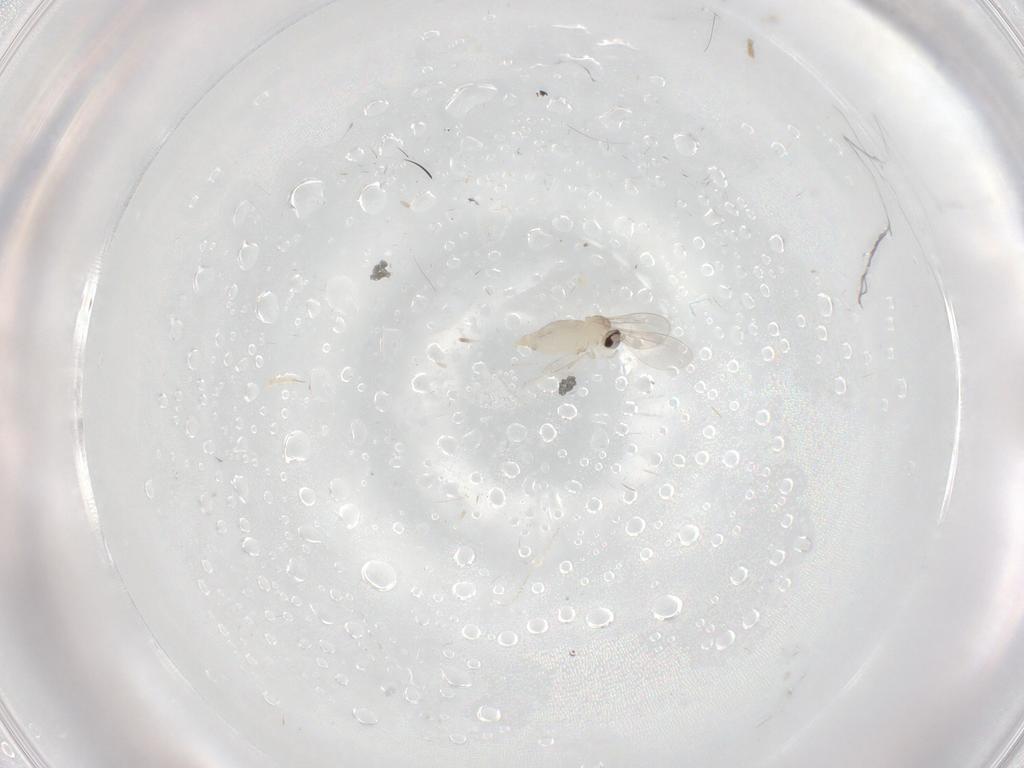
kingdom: Animalia
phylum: Arthropoda
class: Insecta
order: Diptera
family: Cecidomyiidae
